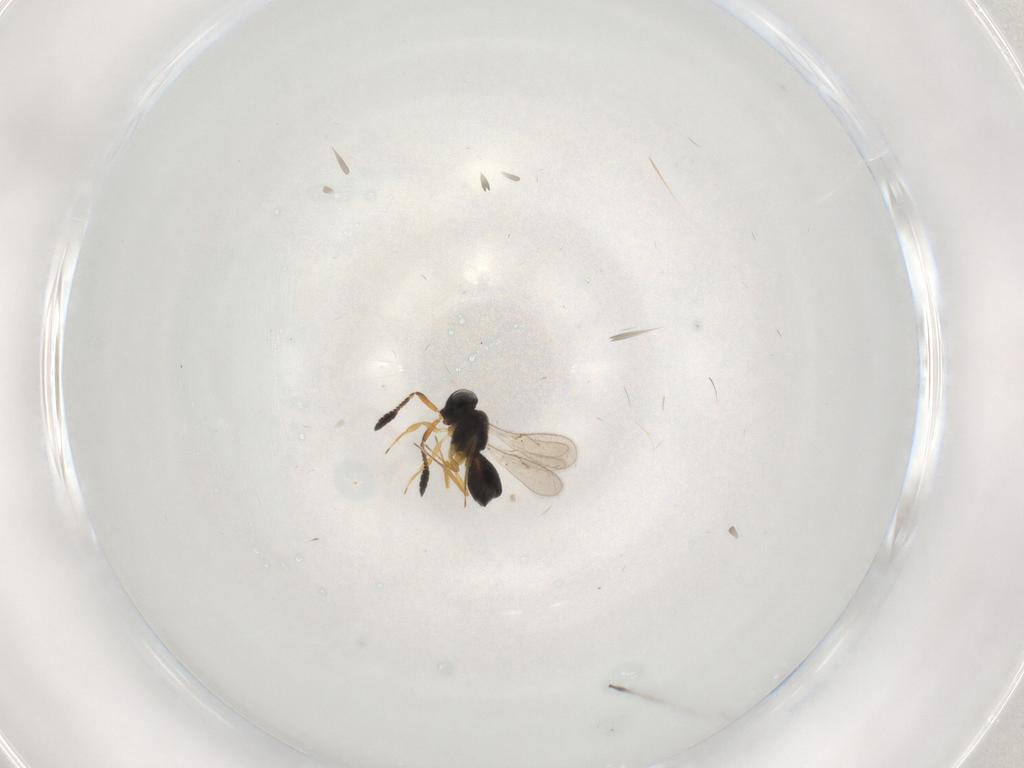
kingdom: Animalia
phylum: Arthropoda
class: Insecta
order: Hymenoptera
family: Scelionidae
